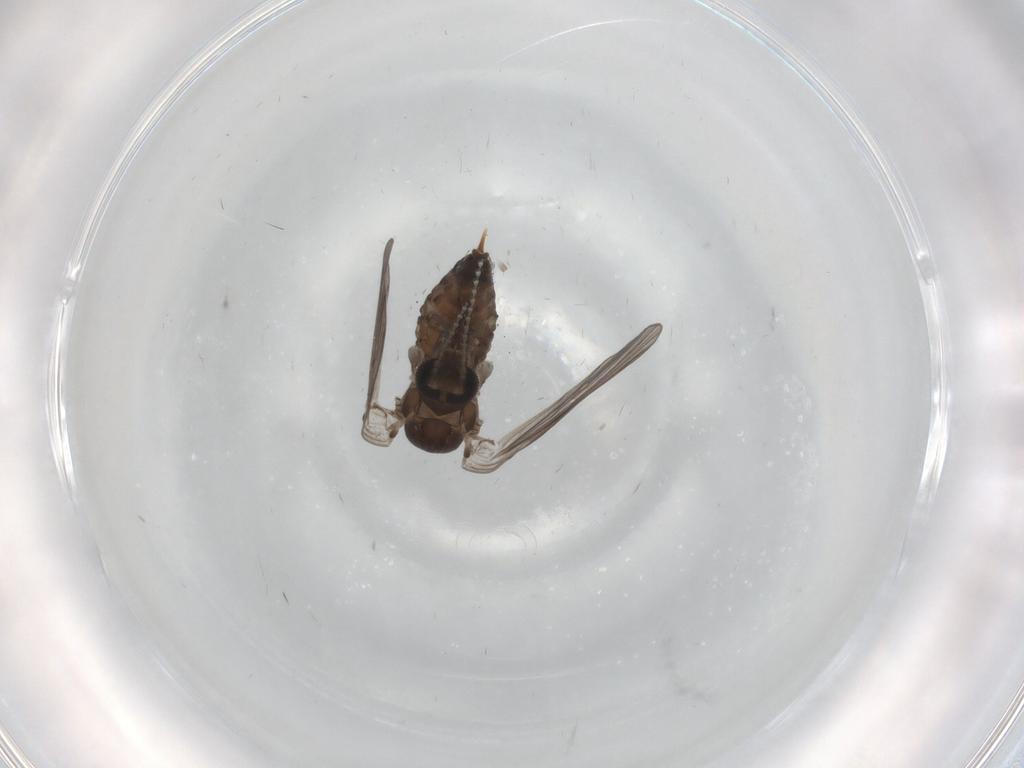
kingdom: Animalia
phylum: Arthropoda
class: Insecta
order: Diptera
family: Psychodidae
